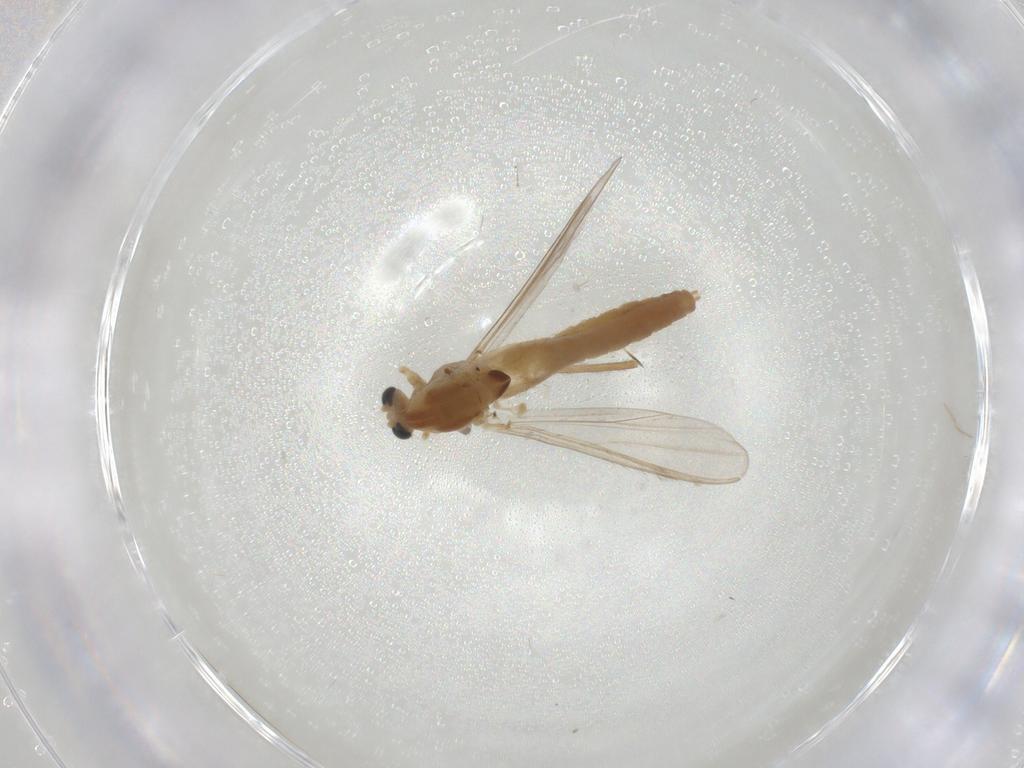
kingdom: Animalia
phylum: Arthropoda
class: Insecta
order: Diptera
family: Chironomidae
